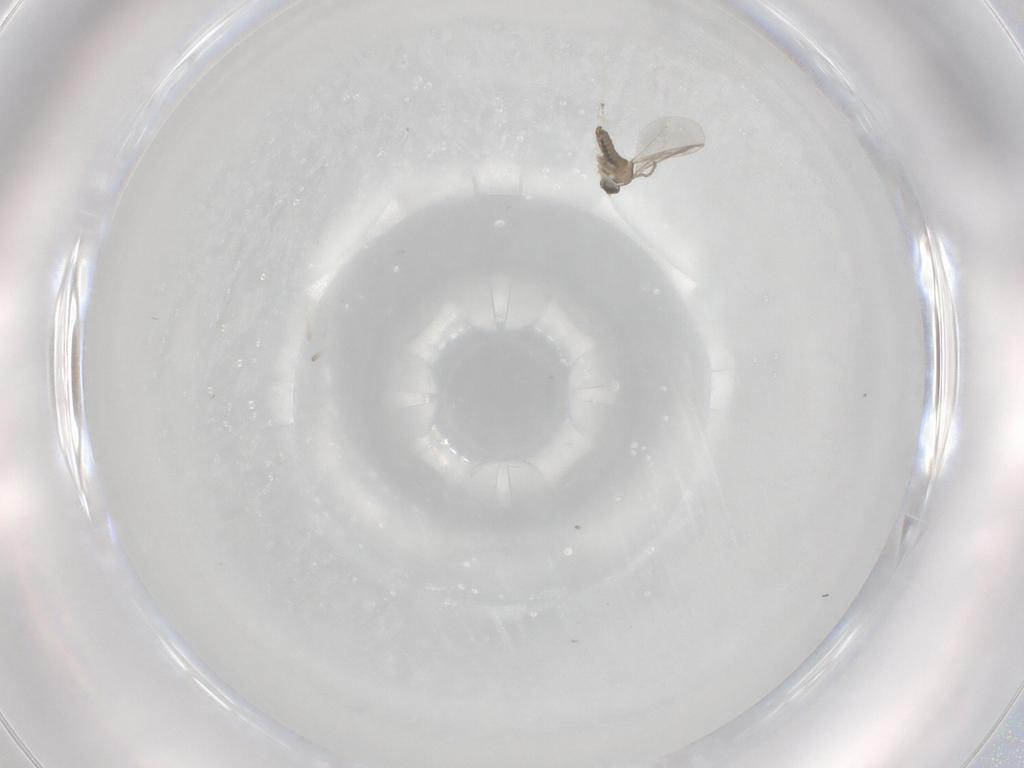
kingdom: Animalia
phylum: Arthropoda
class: Insecta
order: Diptera
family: Cecidomyiidae
